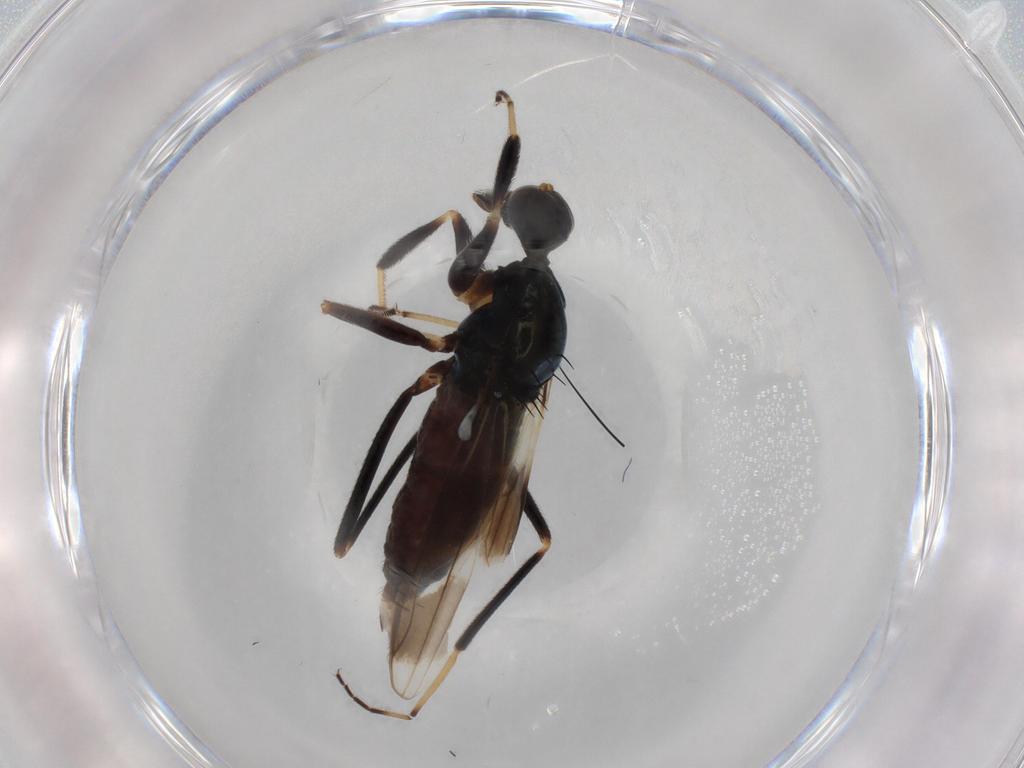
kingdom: Animalia
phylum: Arthropoda
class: Insecta
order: Diptera
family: Hybotidae
